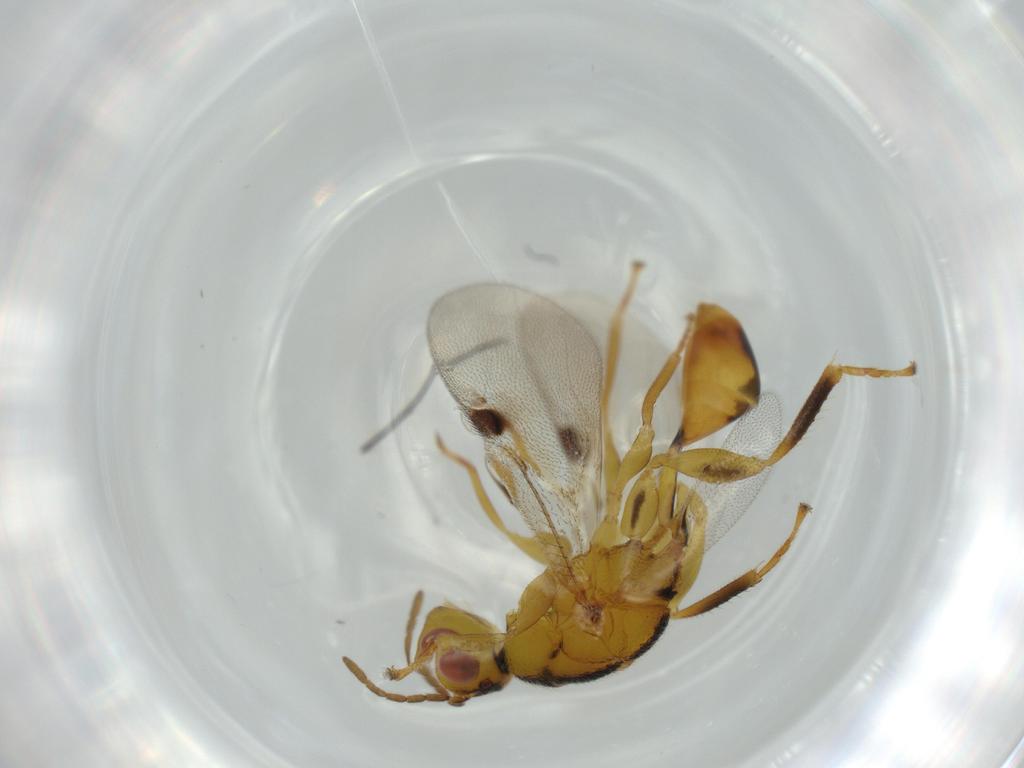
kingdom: Animalia
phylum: Arthropoda
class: Insecta
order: Hymenoptera
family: Eurytomidae
